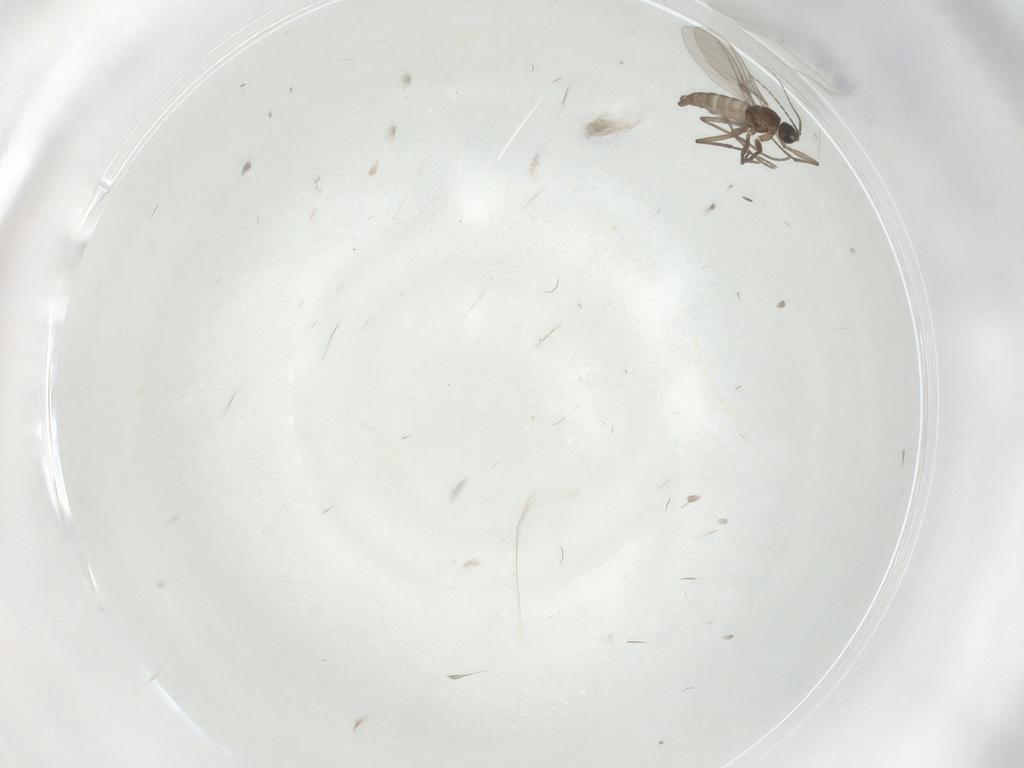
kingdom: Animalia
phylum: Arthropoda
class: Insecta
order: Diptera
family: Sciaridae
